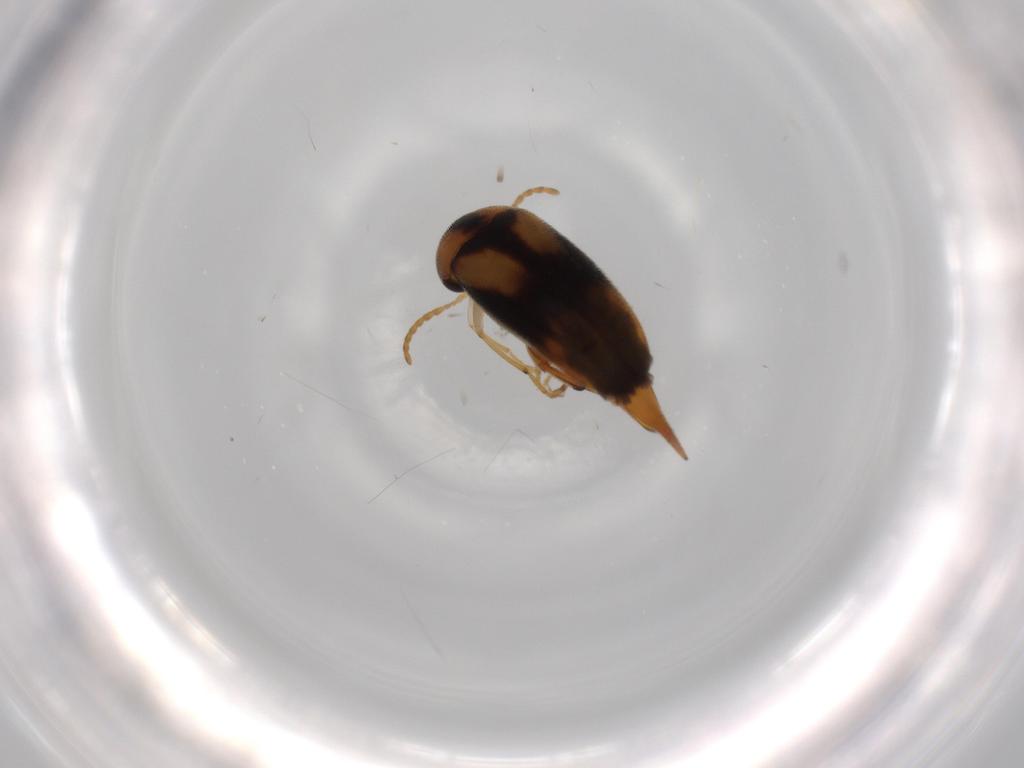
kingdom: Animalia
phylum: Arthropoda
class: Insecta
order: Coleoptera
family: Mordellidae
